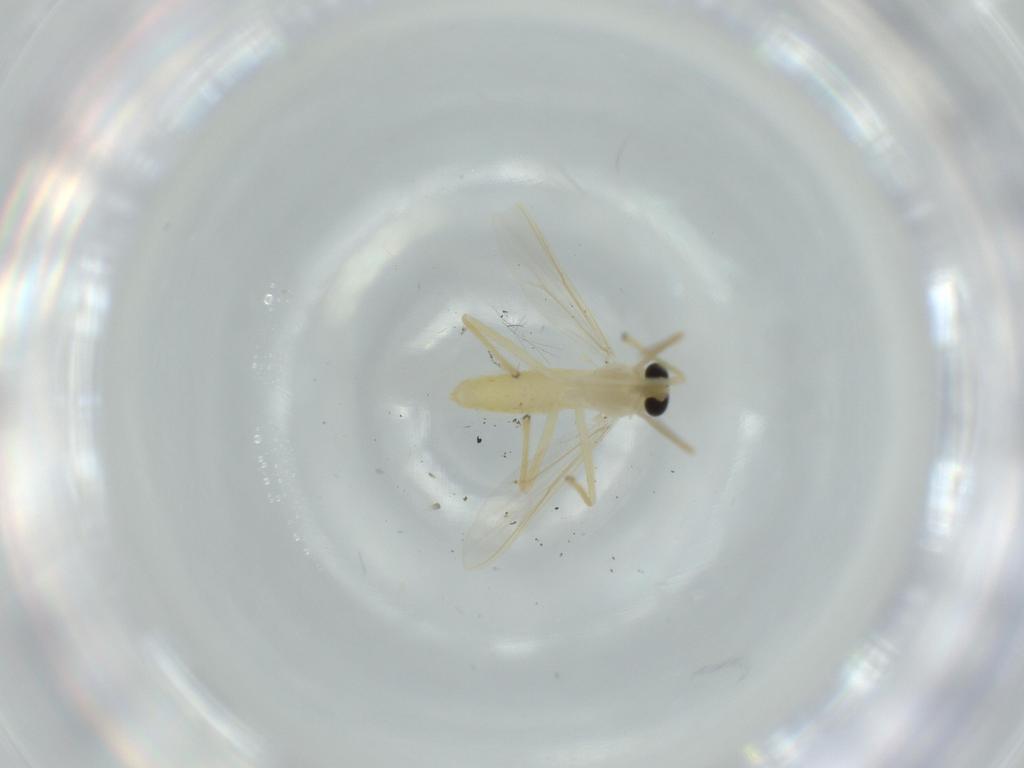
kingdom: Animalia
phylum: Arthropoda
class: Insecta
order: Diptera
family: Chironomidae
